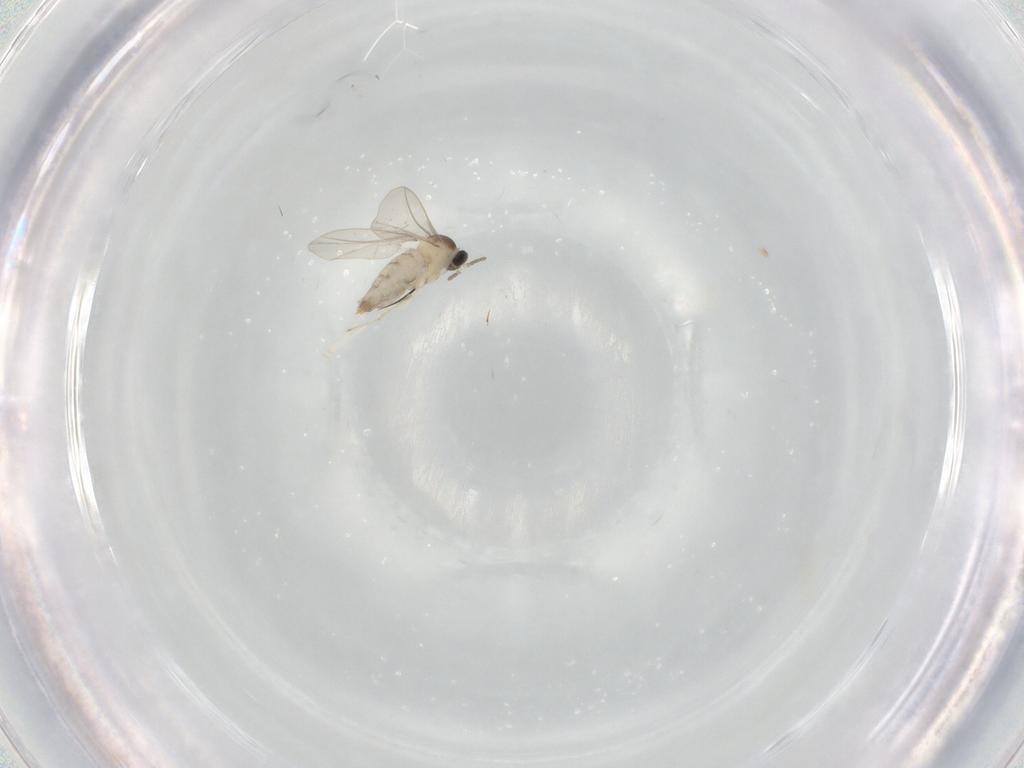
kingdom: Animalia
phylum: Arthropoda
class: Insecta
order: Diptera
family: Cecidomyiidae
